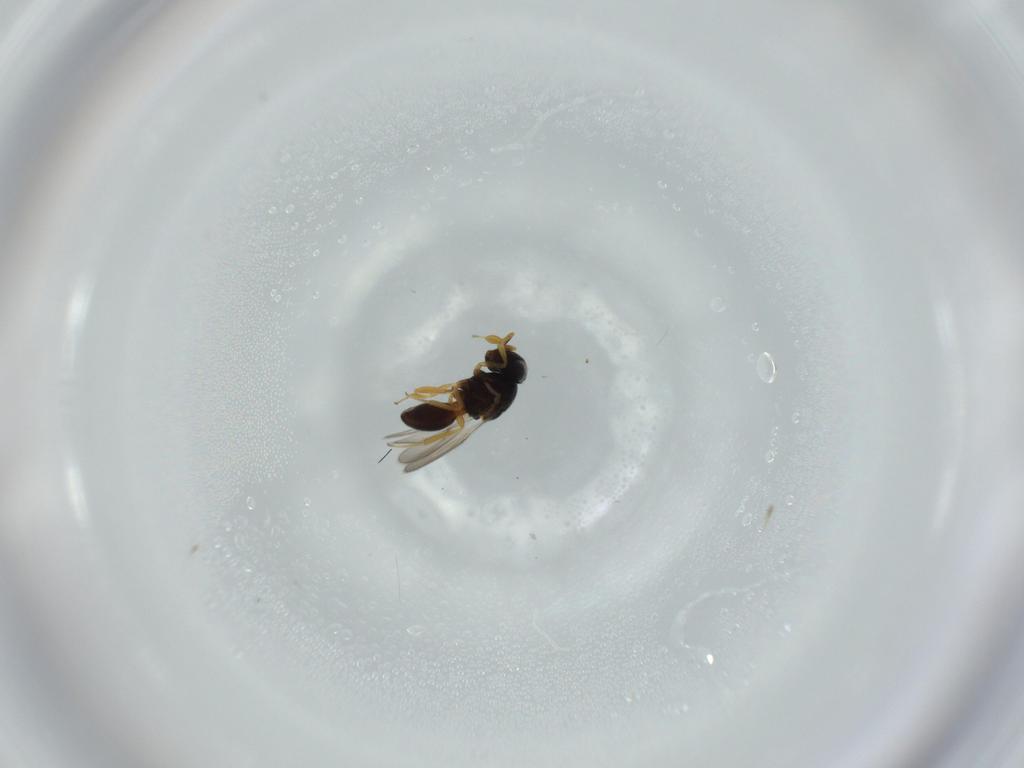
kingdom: Animalia
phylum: Arthropoda
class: Insecta
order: Hymenoptera
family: Scelionidae
